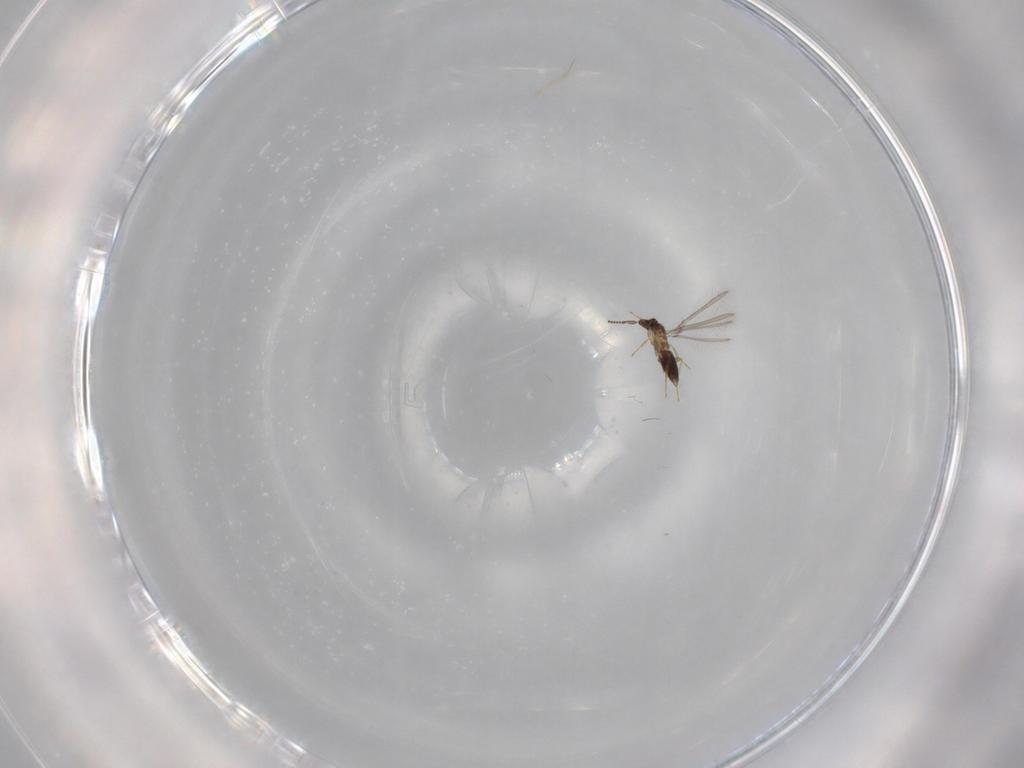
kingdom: Animalia
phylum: Arthropoda
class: Insecta
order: Hymenoptera
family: Mymaridae
